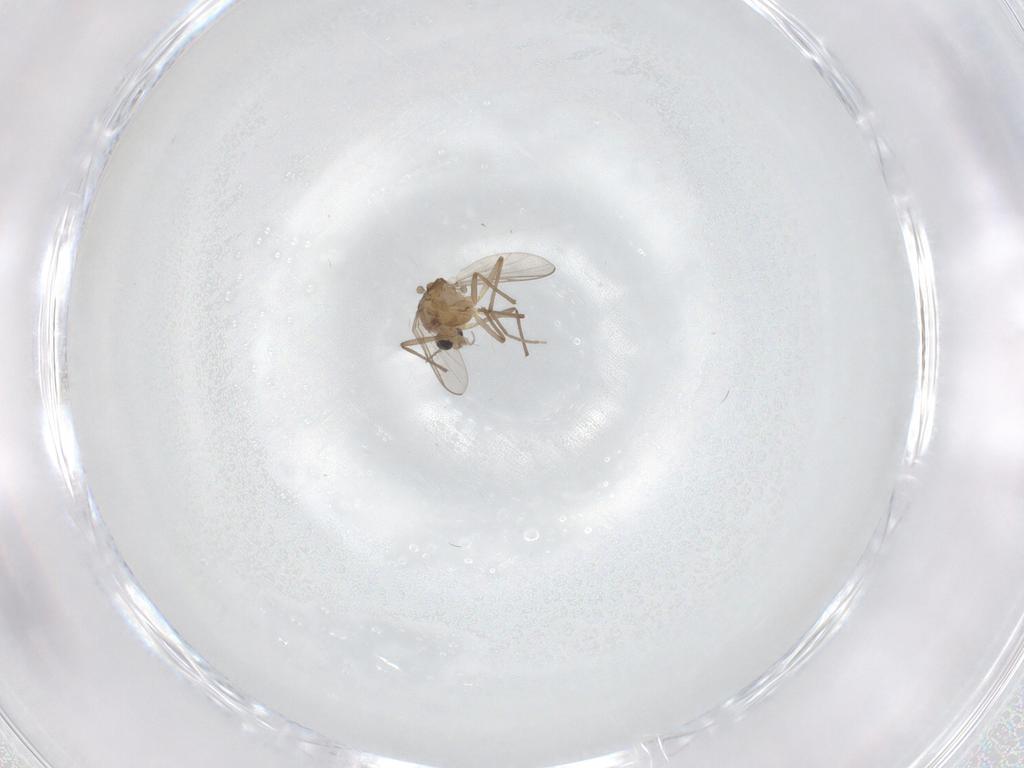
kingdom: Animalia
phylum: Arthropoda
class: Insecta
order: Diptera
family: Chironomidae
